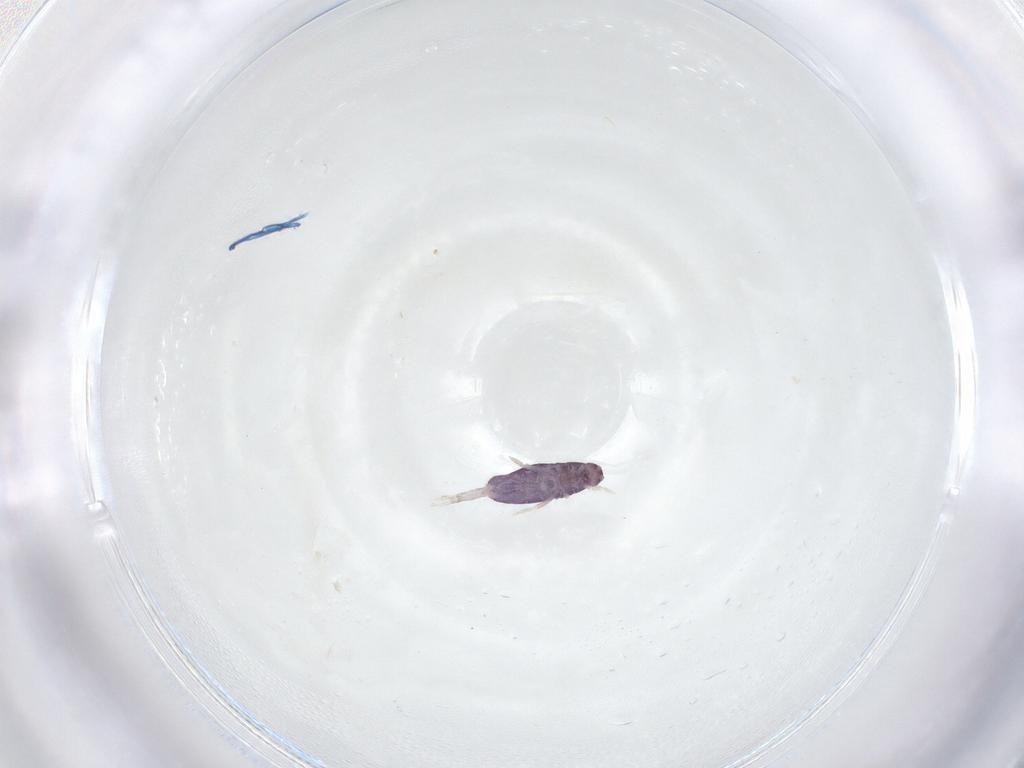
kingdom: Animalia
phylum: Arthropoda
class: Collembola
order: Entomobryomorpha
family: Entomobryidae
